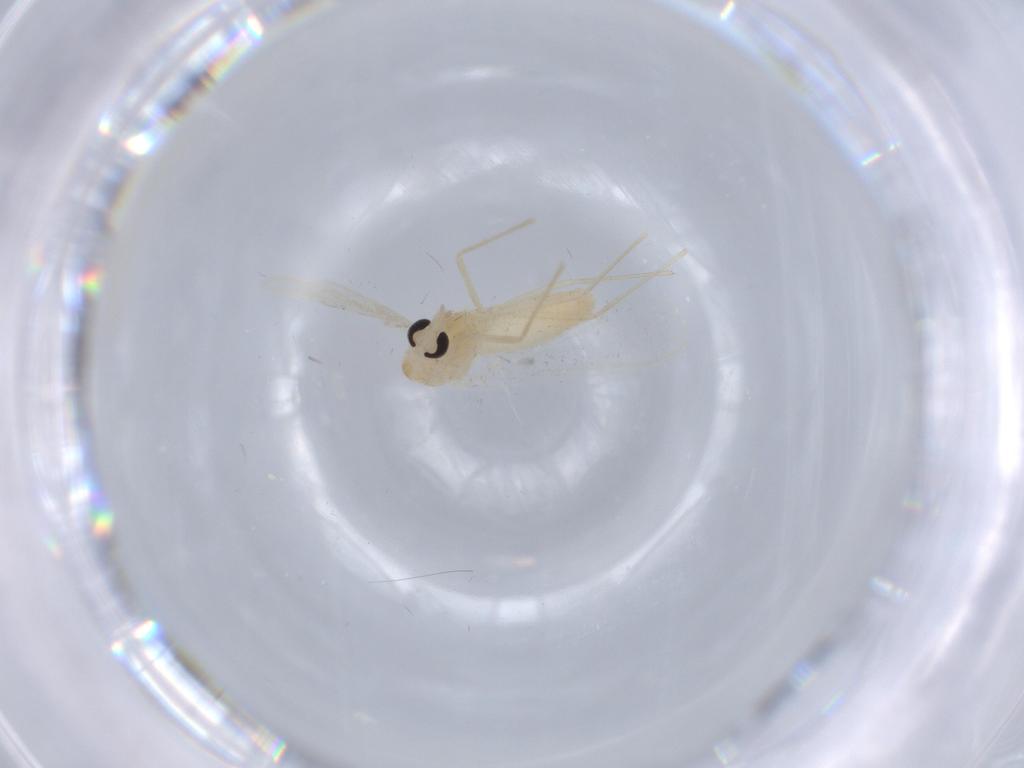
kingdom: Animalia
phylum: Arthropoda
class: Insecta
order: Diptera
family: Chironomidae
